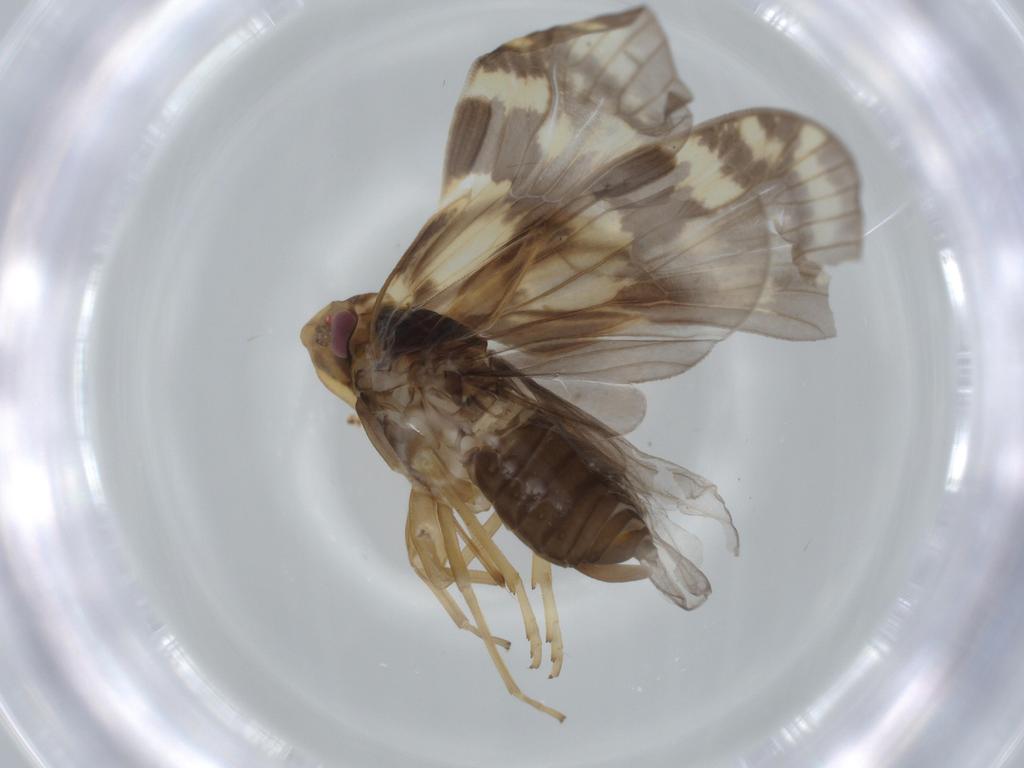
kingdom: Animalia
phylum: Arthropoda
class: Insecta
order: Hemiptera
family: Cixiidae
